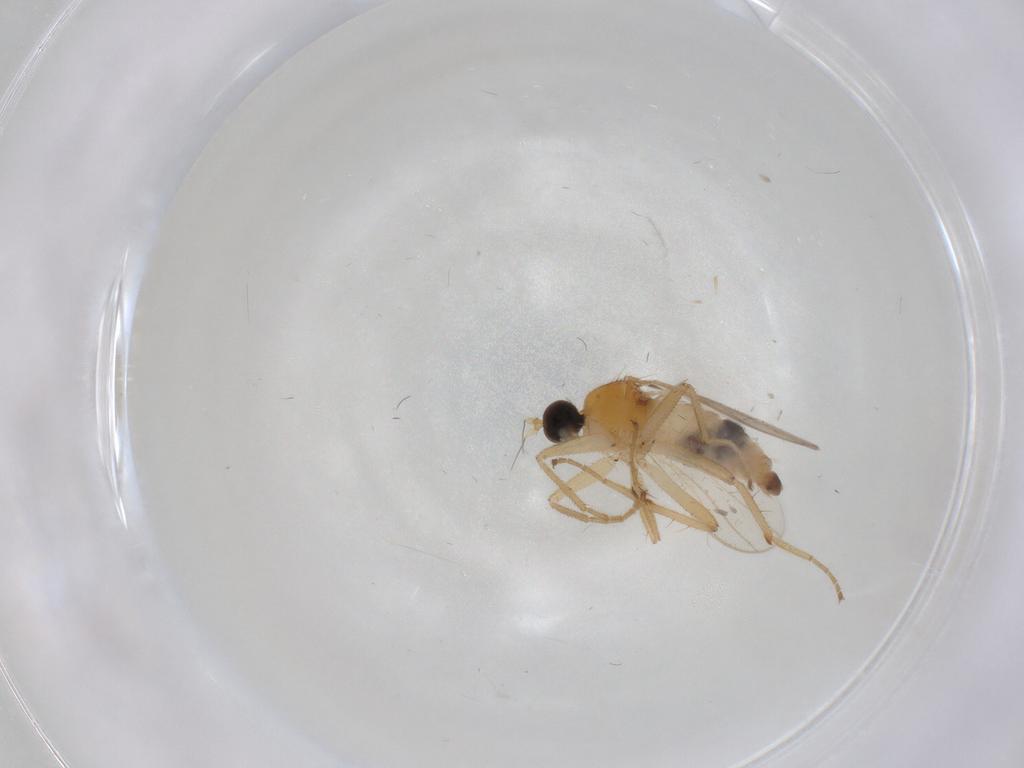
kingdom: Animalia
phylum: Arthropoda
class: Insecta
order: Diptera
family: Hybotidae
